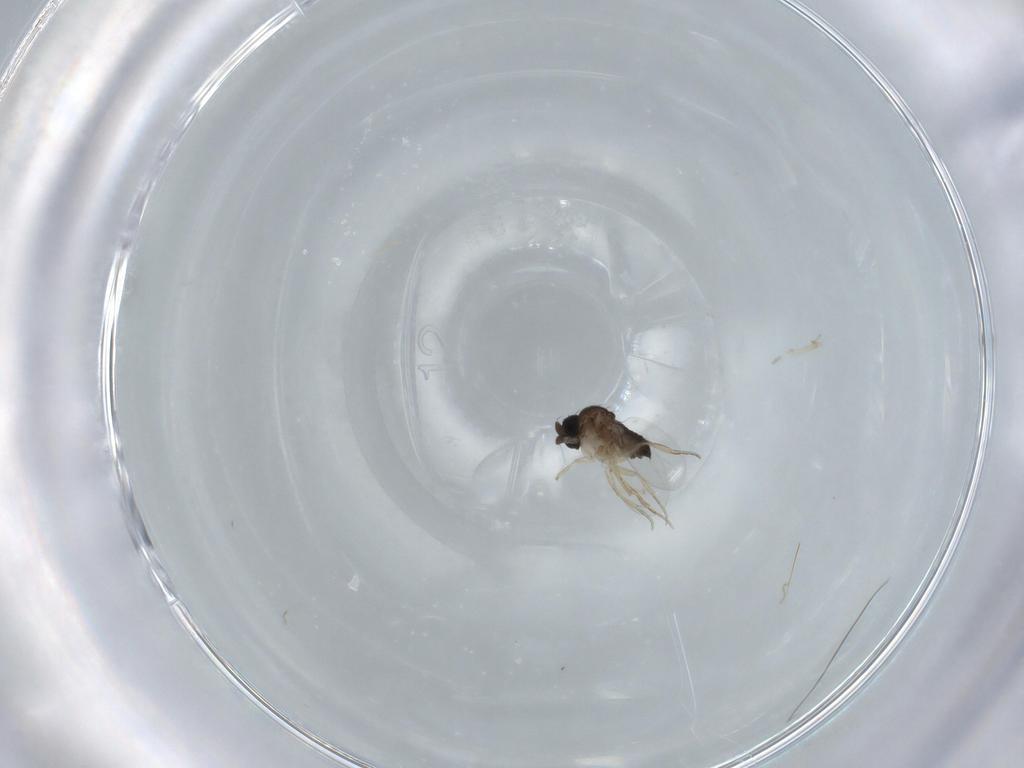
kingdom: Animalia
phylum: Arthropoda
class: Insecta
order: Diptera
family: Phoridae
